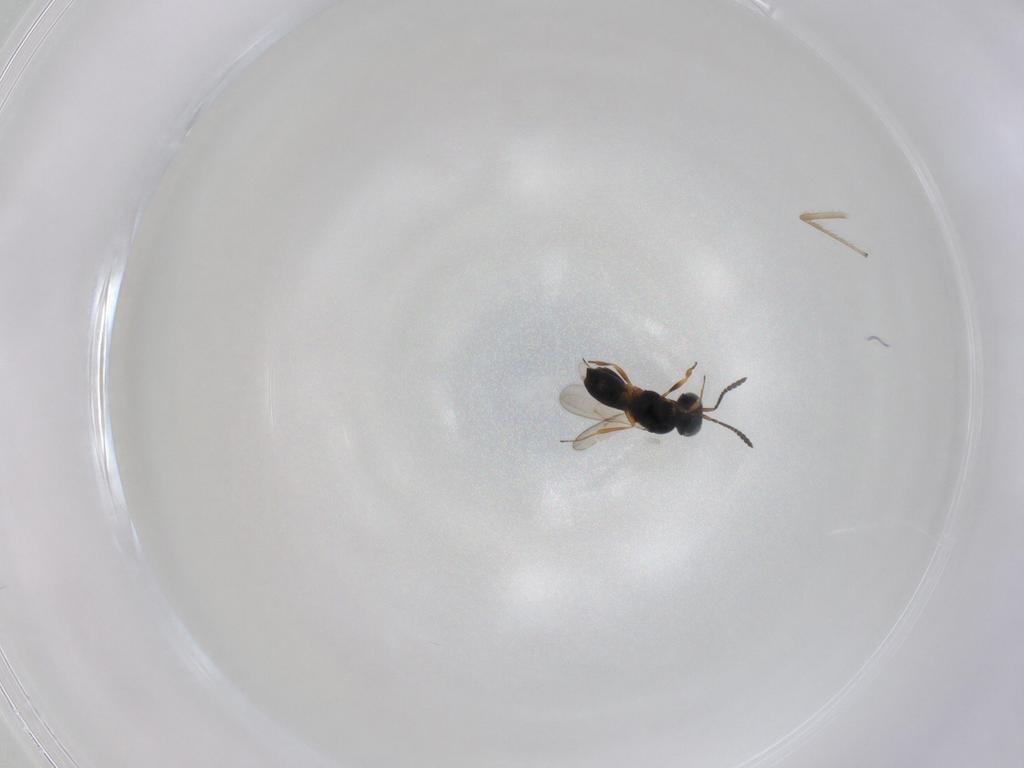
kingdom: Animalia
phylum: Arthropoda
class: Insecta
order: Hymenoptera
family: Scelionidae
